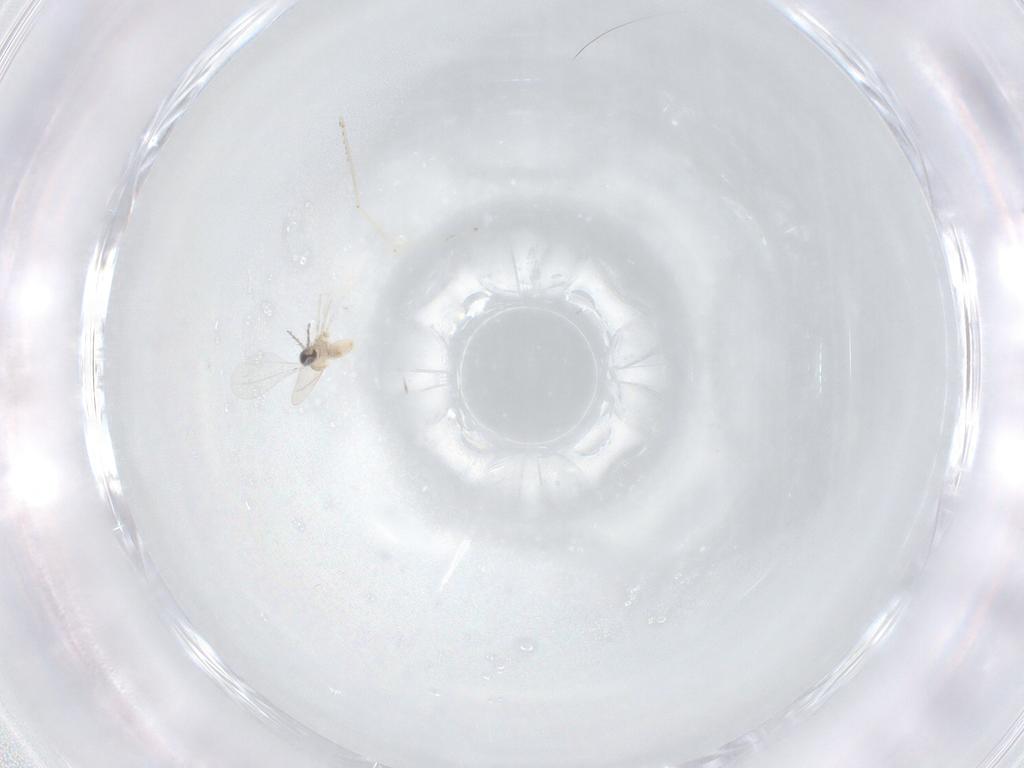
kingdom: Animalia
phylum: Arthropoda
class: Insecta
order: Diptera
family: Cecidomyiidae
